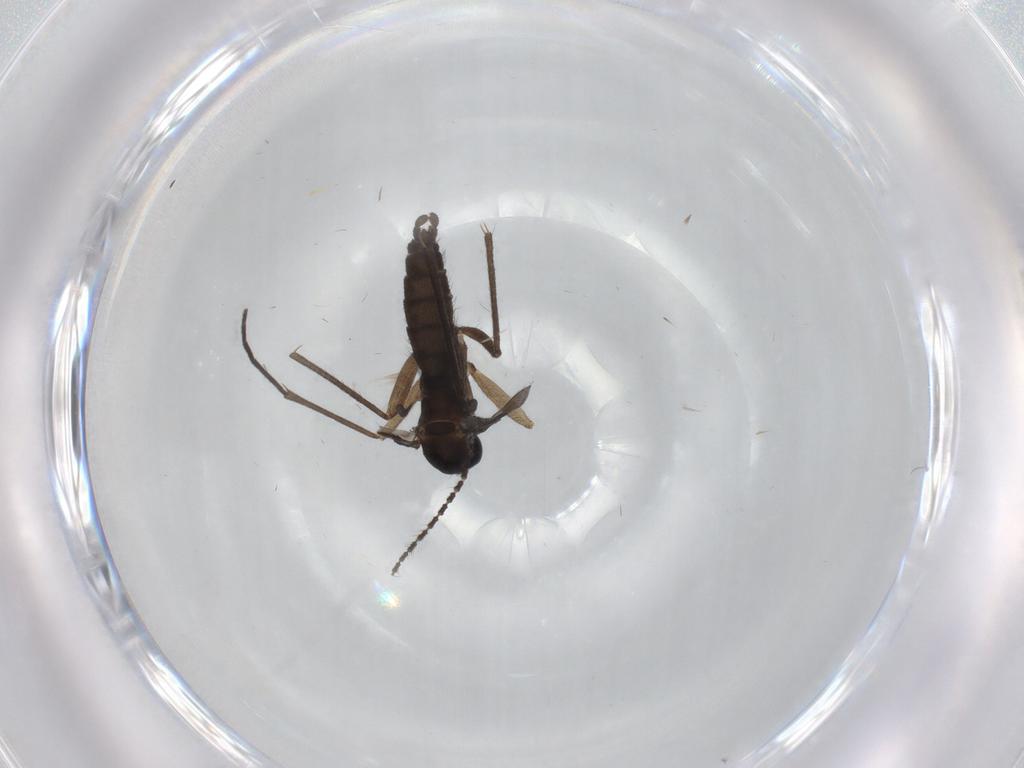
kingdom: Animalia
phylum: Arthropoda
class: Insecta
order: Diptera
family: Sciaridae
